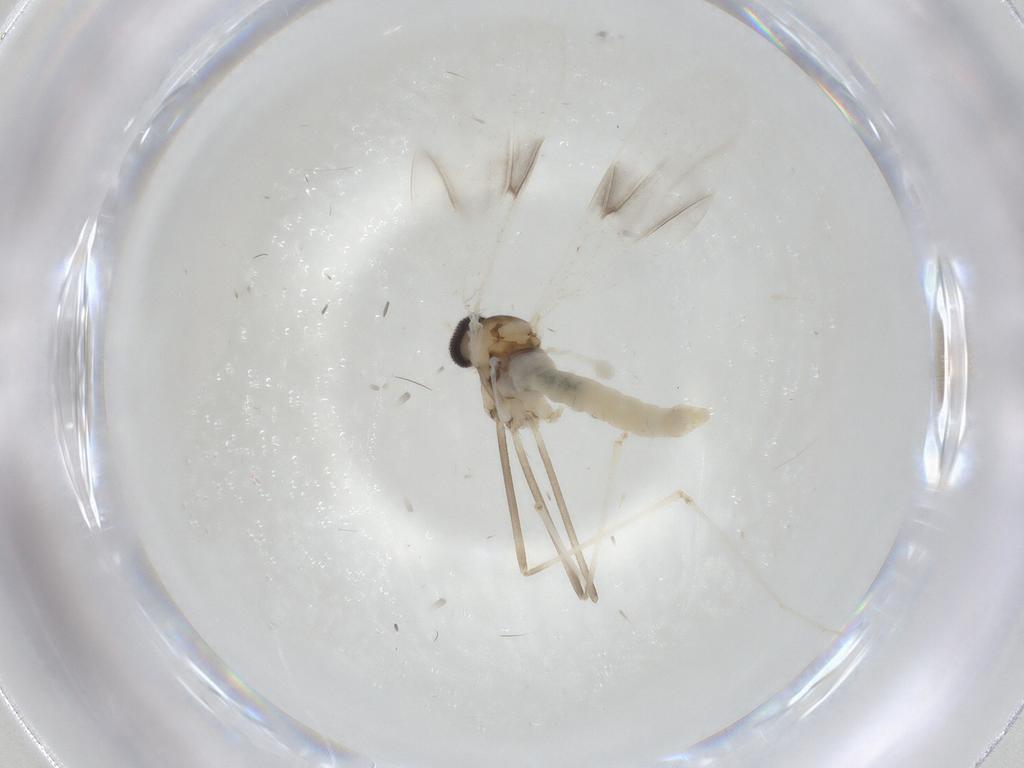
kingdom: Animalia
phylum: Arthropoda
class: Insecta
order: Diptera
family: Cecidomyiidae
